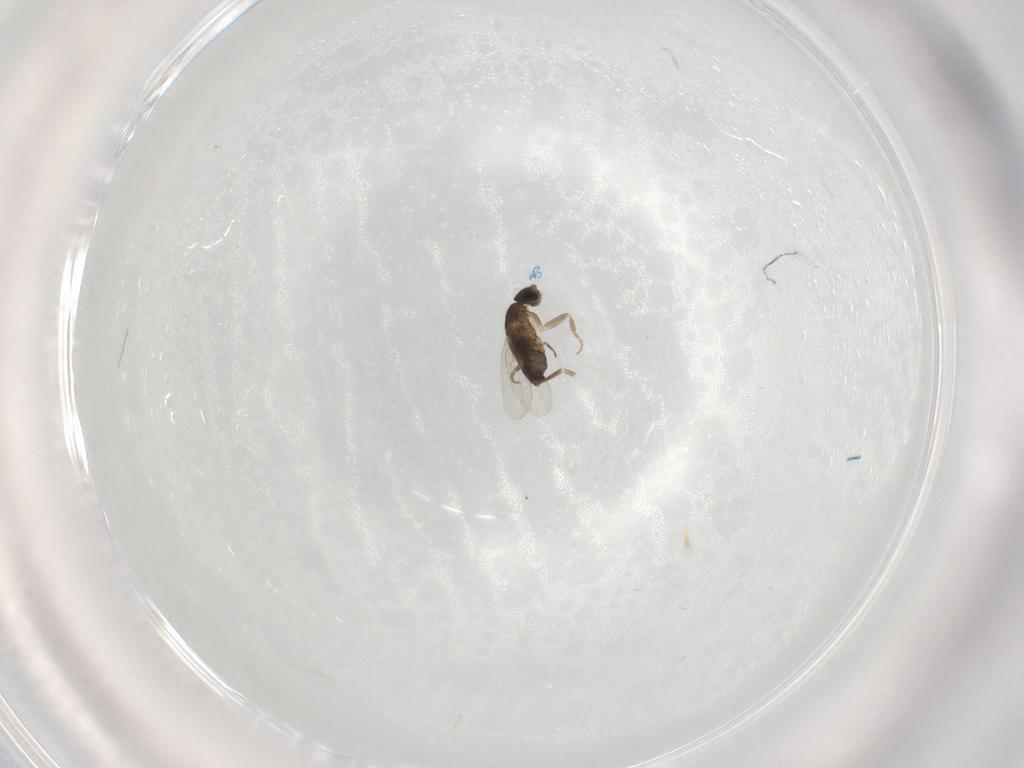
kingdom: Animalia
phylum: Arthropoda
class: Insecta
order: Diptera
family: Phoridae
